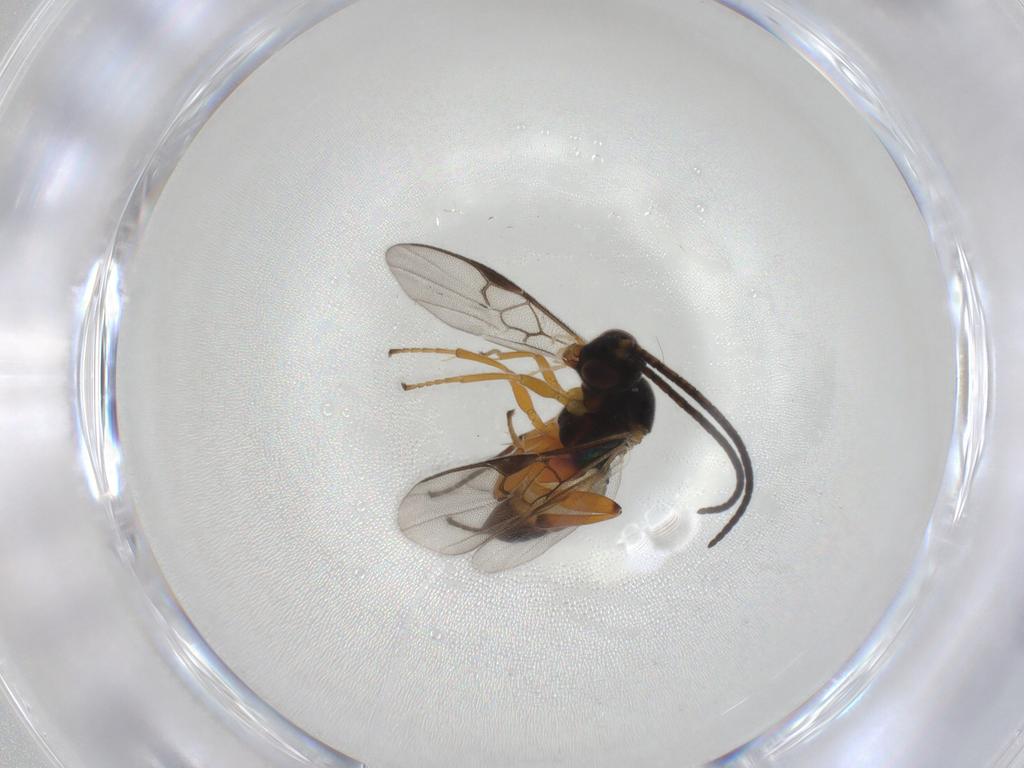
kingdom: Animalia
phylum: Arthropoda
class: Insecta
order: Hymenoptera
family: Braconidae
